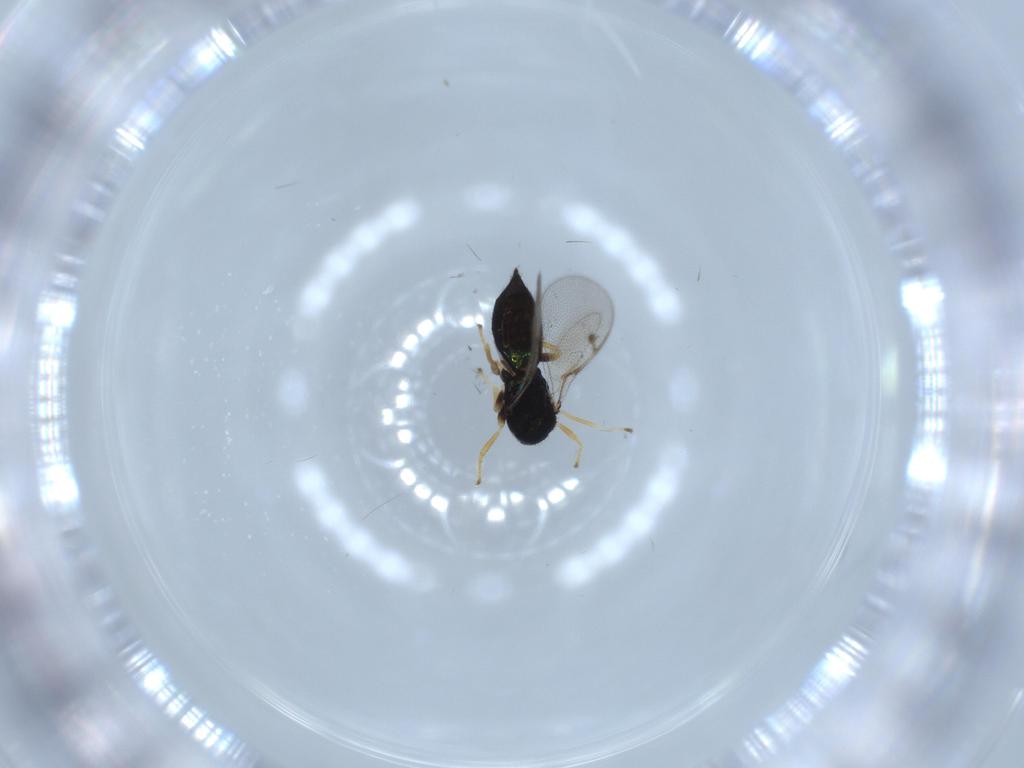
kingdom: Animalia
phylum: Arthropoda
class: Insecta
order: Hymenoptera
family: Pirenidae
